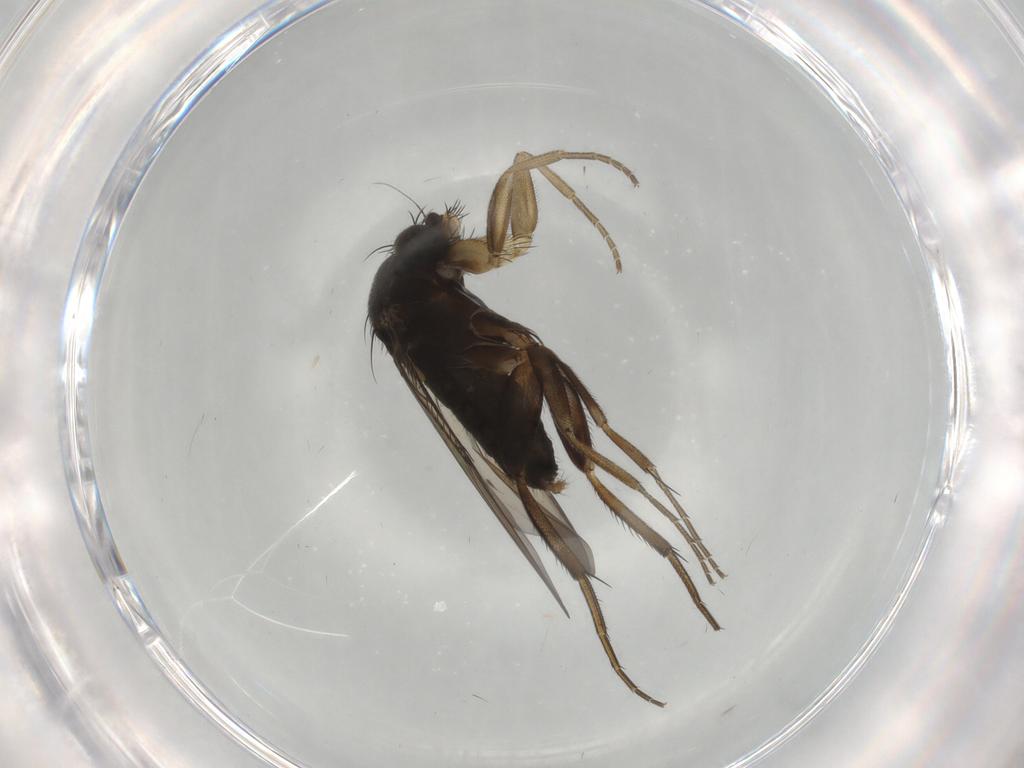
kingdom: Animalia
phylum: Arthropoda
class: Insecta
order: Diptera
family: Phoridae
